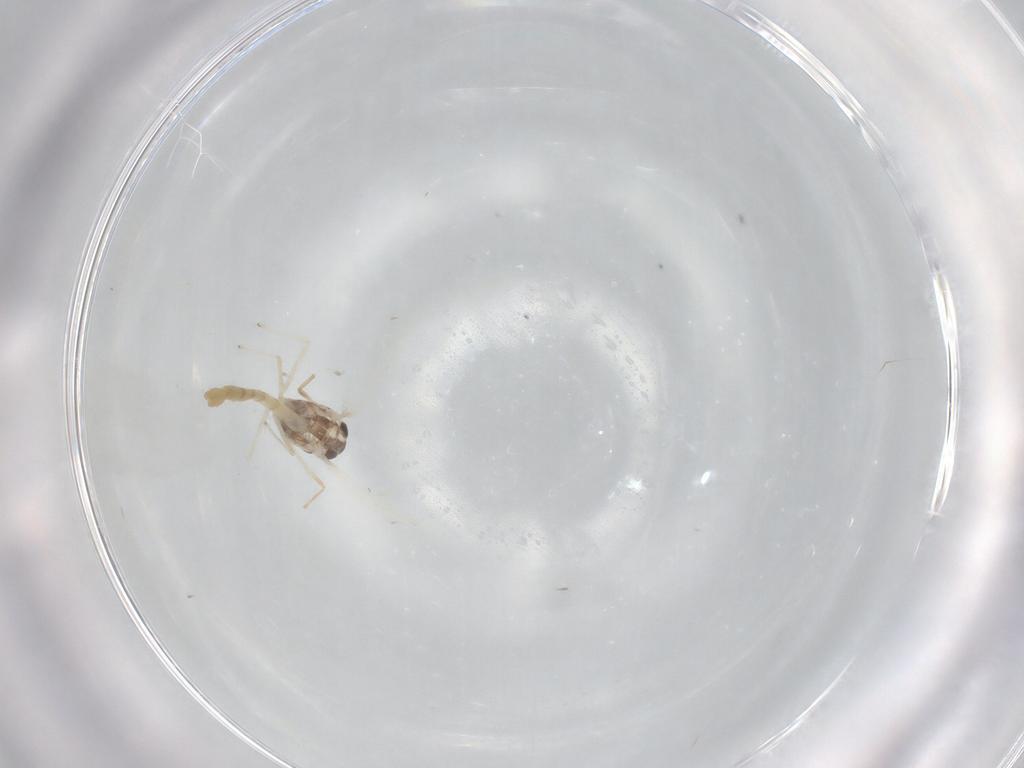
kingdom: Animalia
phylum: Arthropoda
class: Insecta
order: Diptera
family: Chironomidae
